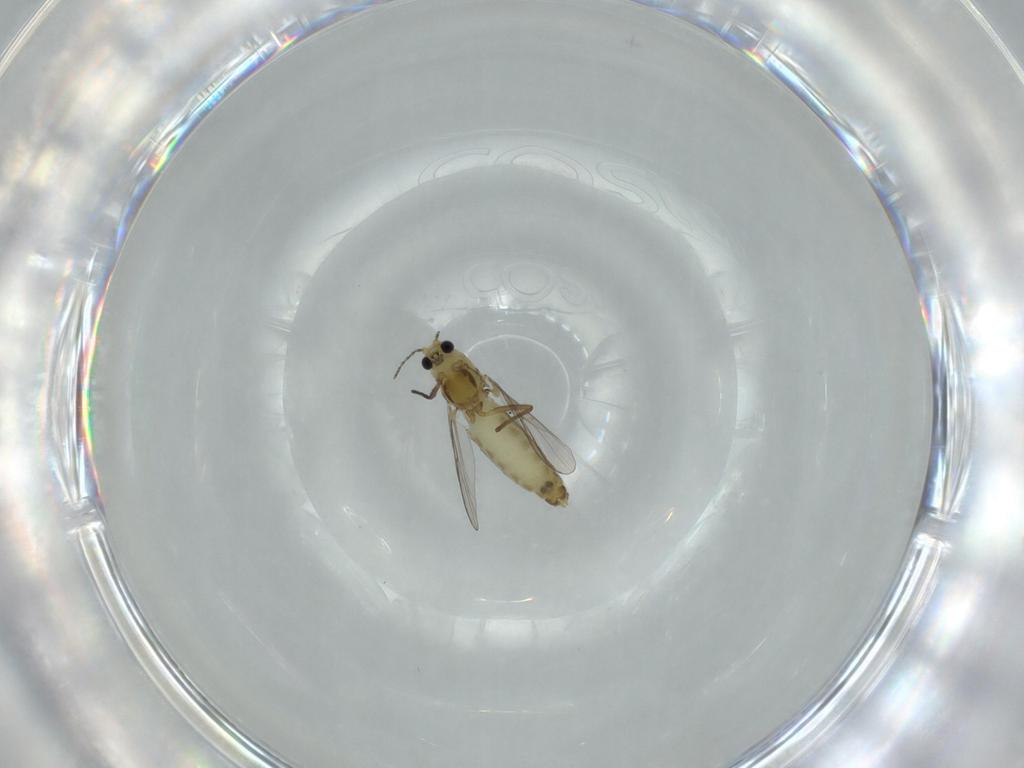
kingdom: Animalia
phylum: Arthropoda
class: Insecta
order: Diptera
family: Chironomidae
